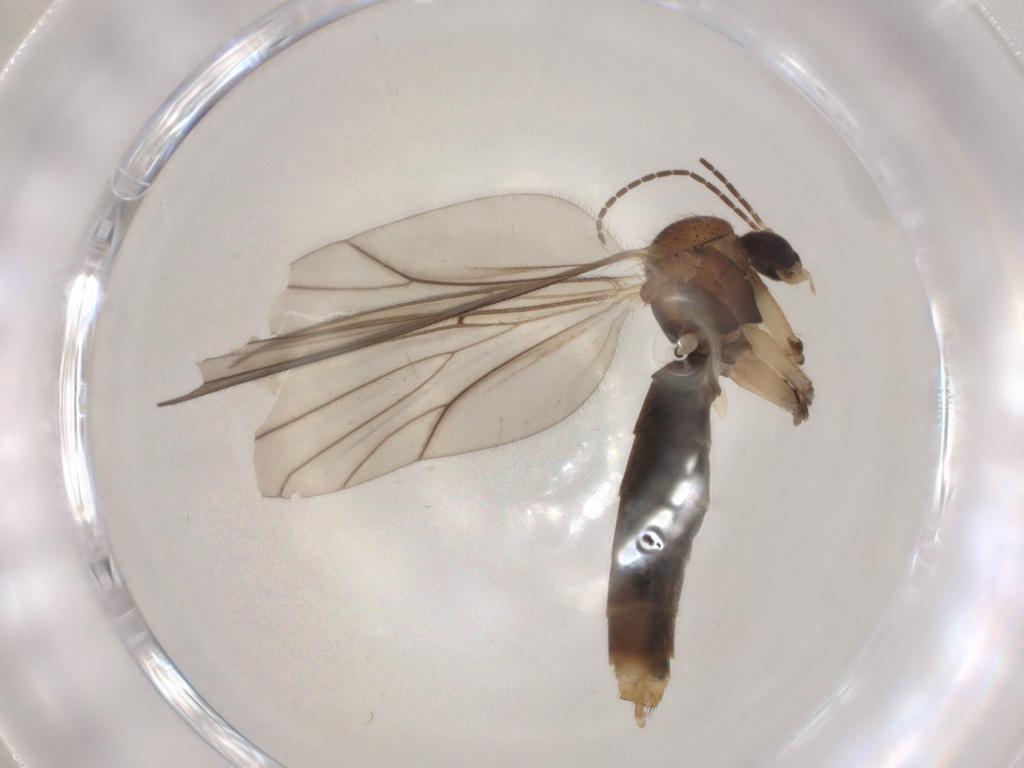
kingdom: Animalia
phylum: Arthropoda
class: Insecta
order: Diptera
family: Mycetophilidae
